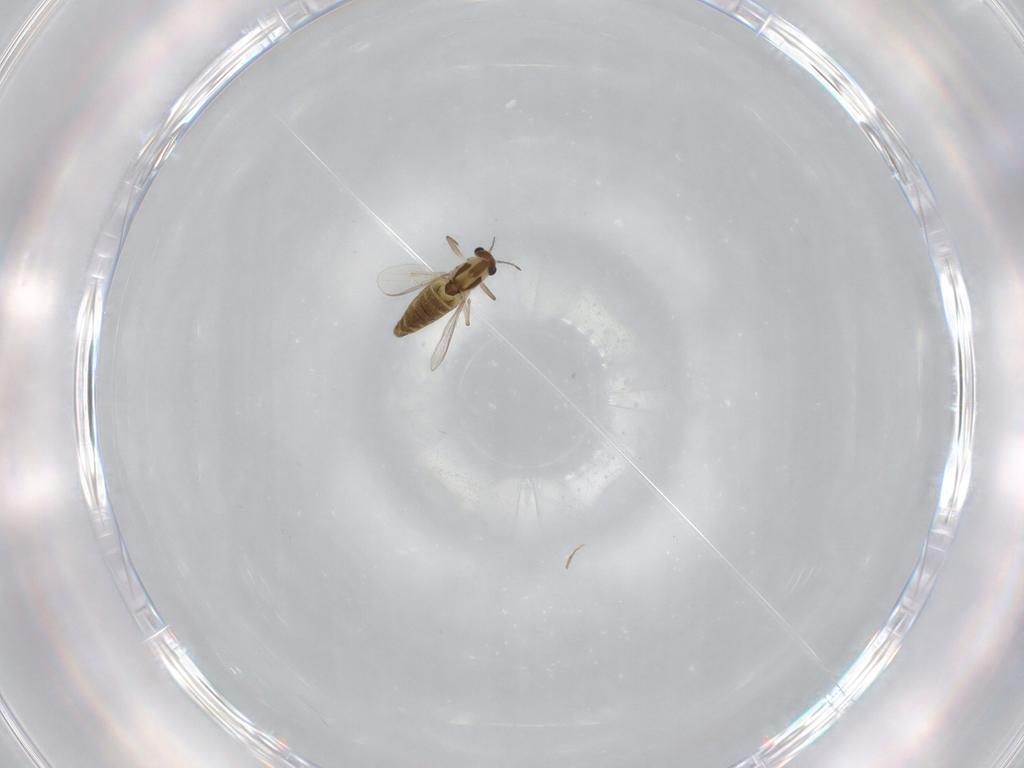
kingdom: Animalia
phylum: Arthropoda
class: Insecta
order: Diptera
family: Chironomidae
